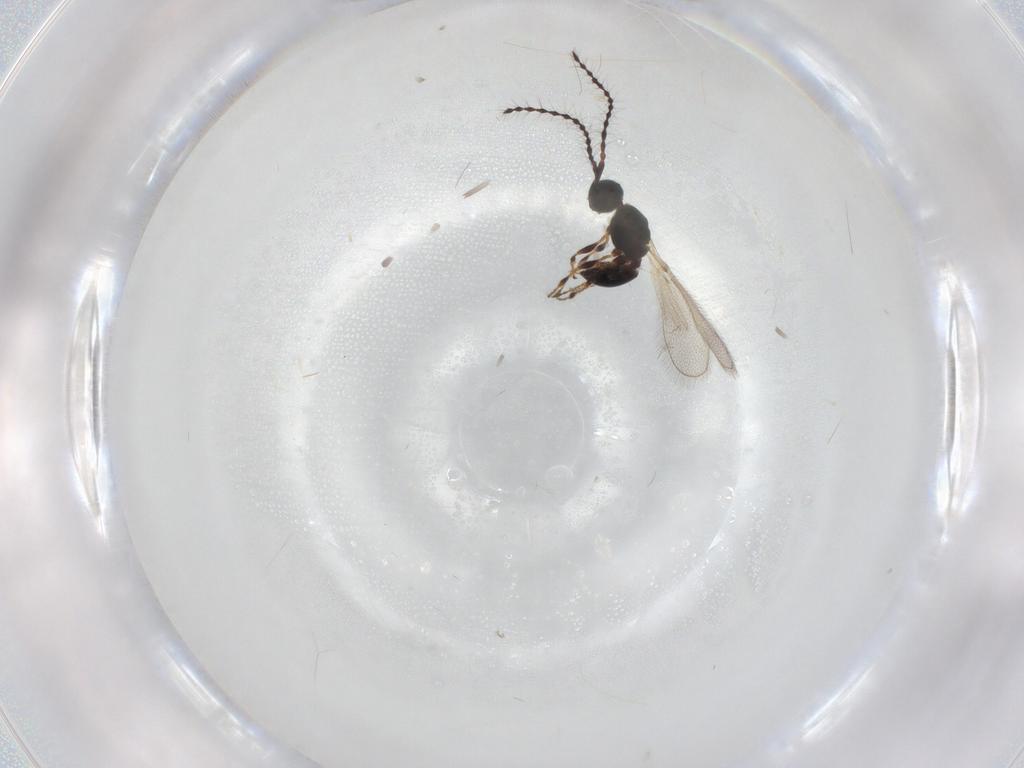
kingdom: Animalia
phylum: Arthropoda
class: Insecta
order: Hymenoptera
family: Diapriidae
